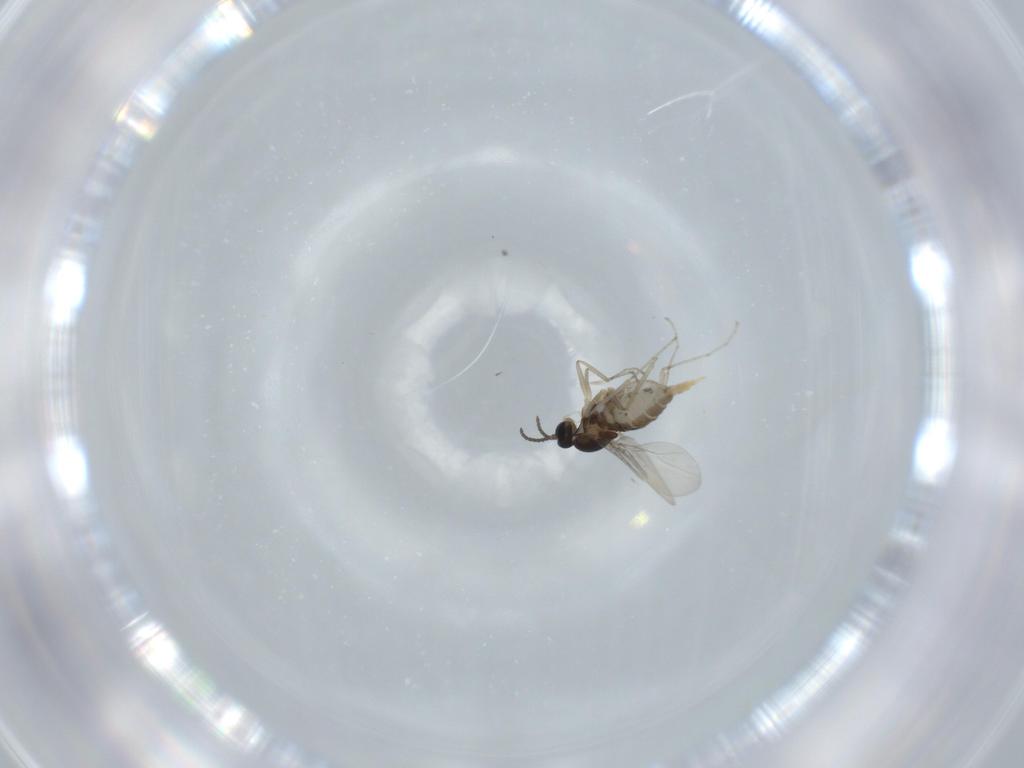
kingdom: Animalia
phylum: Arthropoda
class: Insecta
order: Diptera
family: Cecidomyiidae
